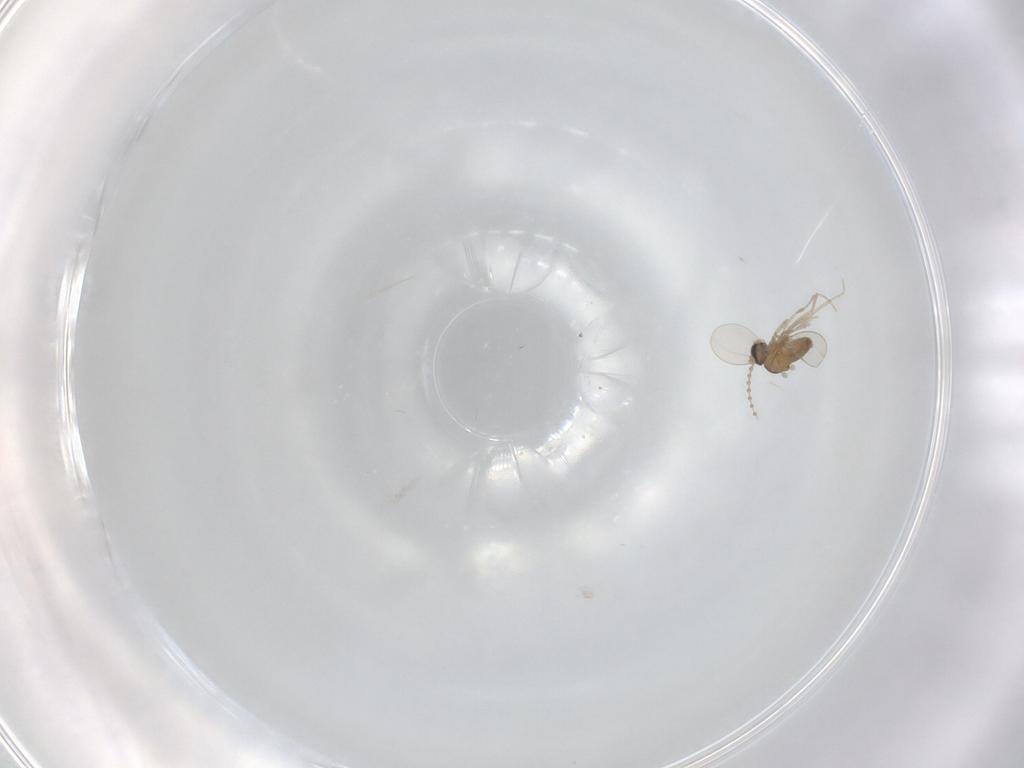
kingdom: Animalia
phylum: Arthropoda
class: Insecta
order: Diptera
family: Cecidomyiidae
